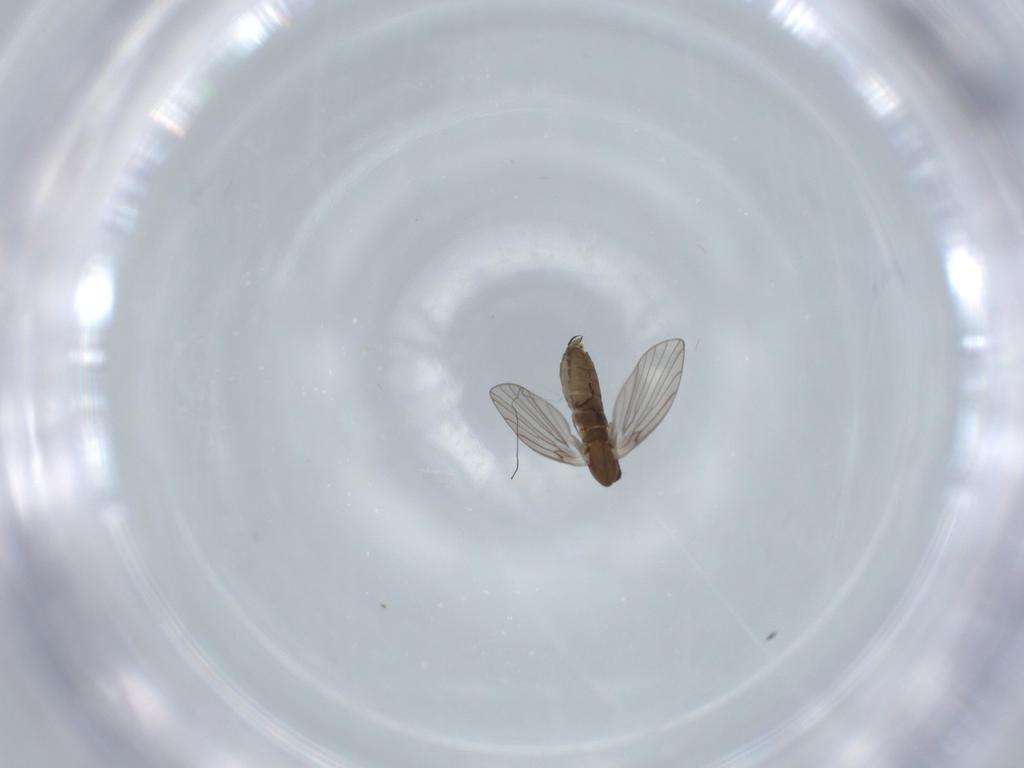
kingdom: Animalia
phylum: Arthropoda
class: Insecta
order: Diptera
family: Psychodidae
